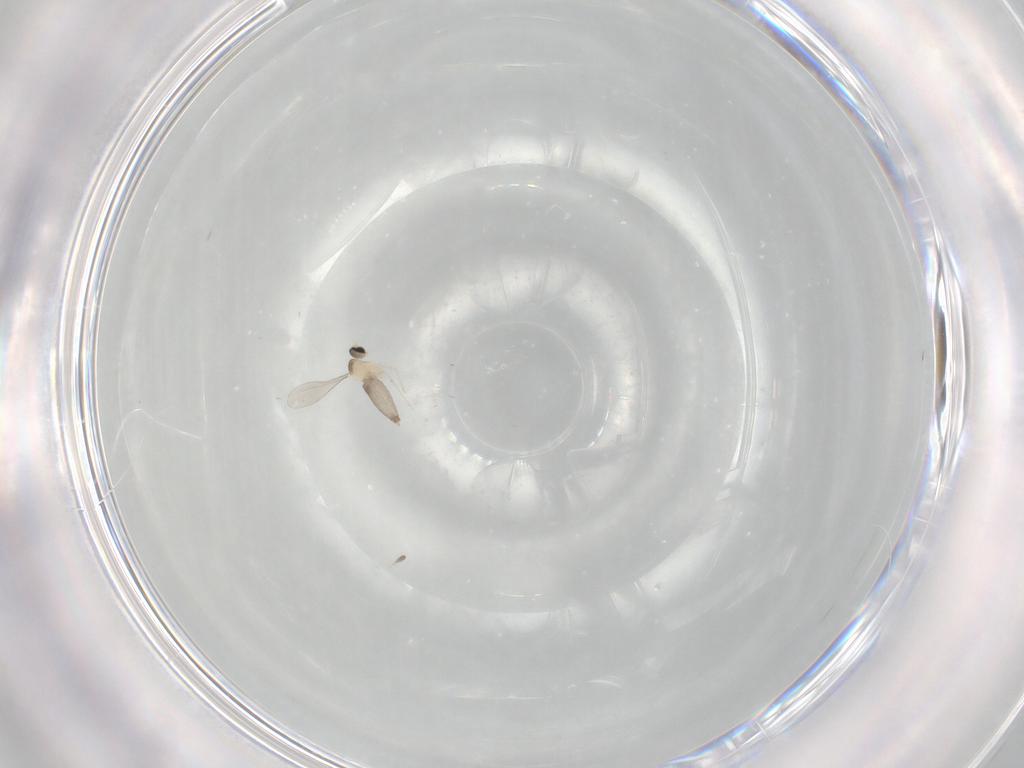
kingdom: Animalia
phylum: Arthropoda
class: Insecta
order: Diptera
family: Cecidomyiidae
